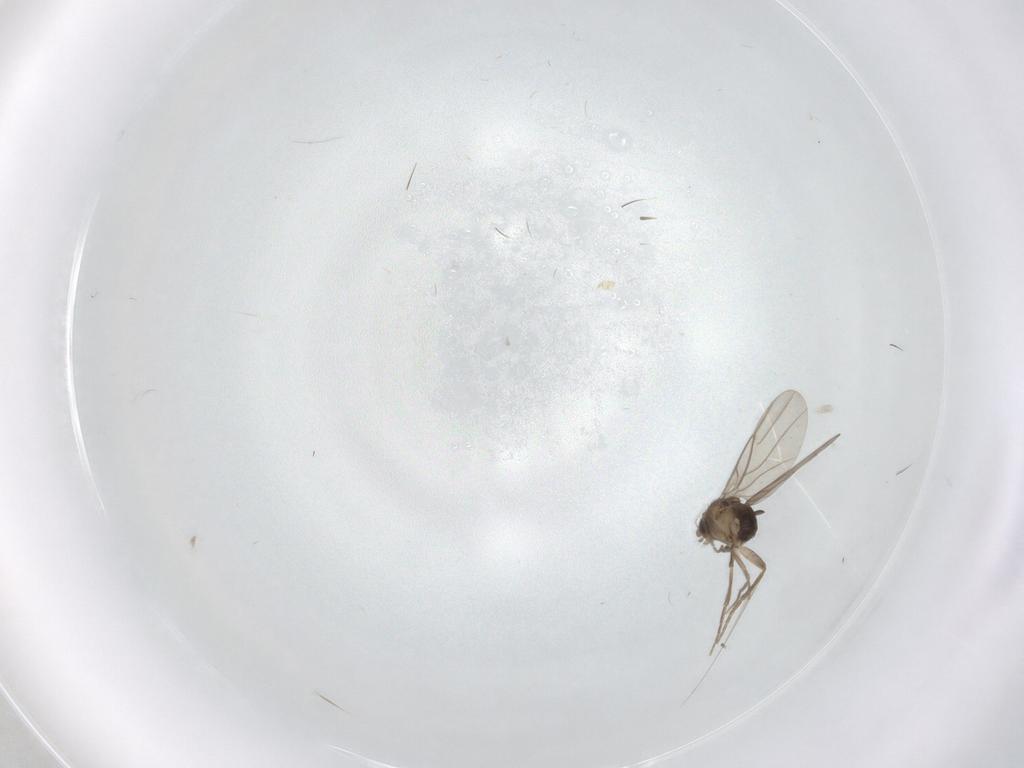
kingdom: Animalia
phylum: Arthropoda
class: Insecta
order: Diptera
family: Phoridae
